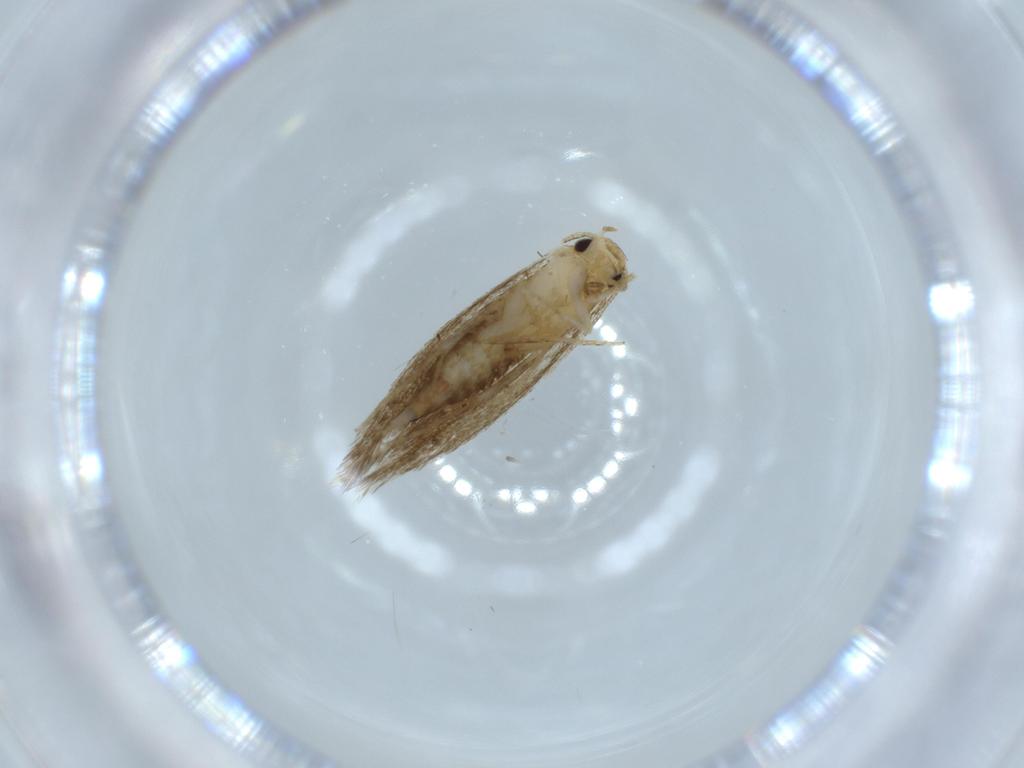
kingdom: Animalia
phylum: Arthropoda
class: Insecta
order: Lepidoptera
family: Tineidae
